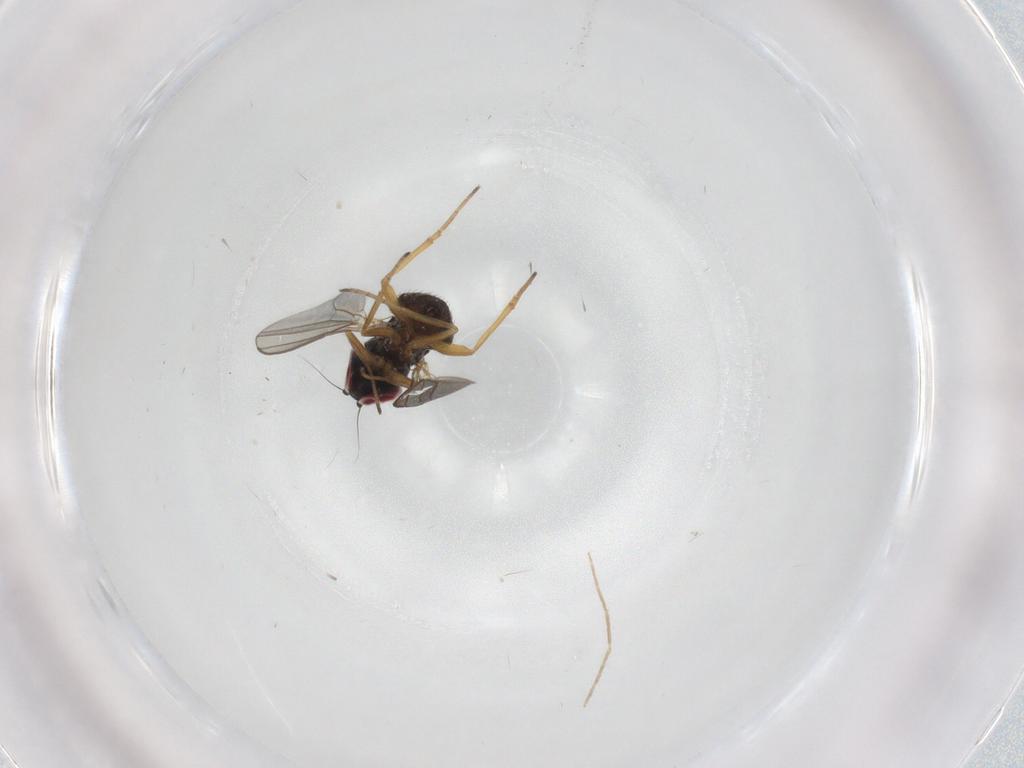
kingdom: Animalia
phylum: Arthropoda
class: Insecta
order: Diptera
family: Dolichopodidae
